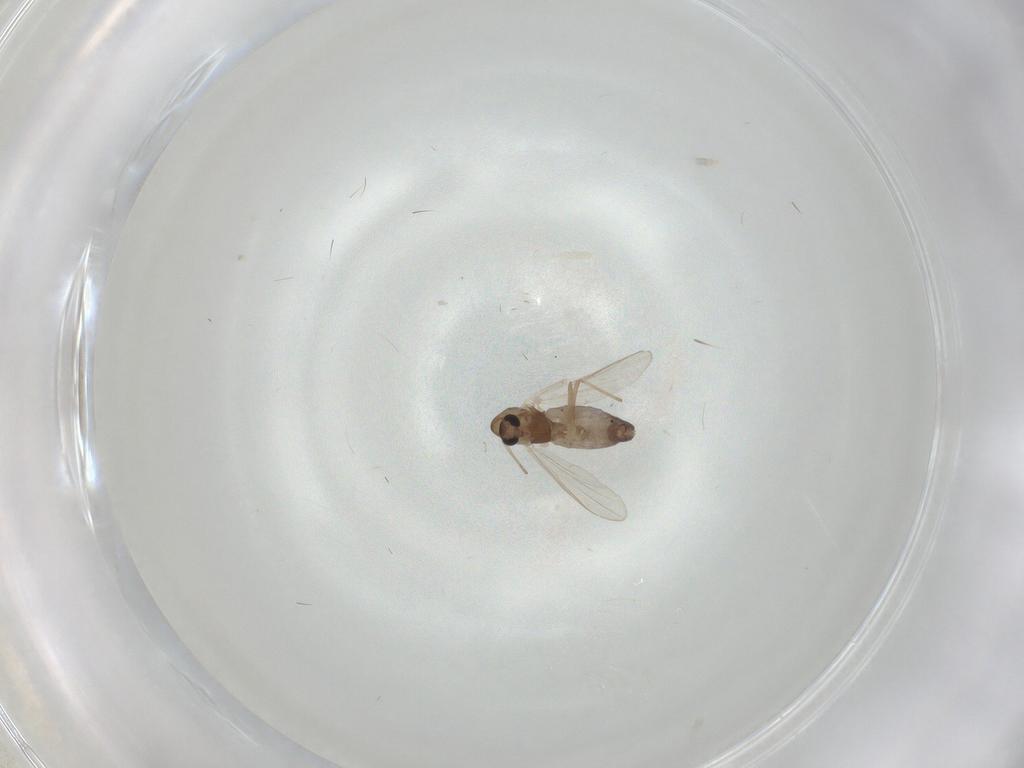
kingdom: Animalia
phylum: Arthropoda
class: Insecta
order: Diptera
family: Chironomidae
